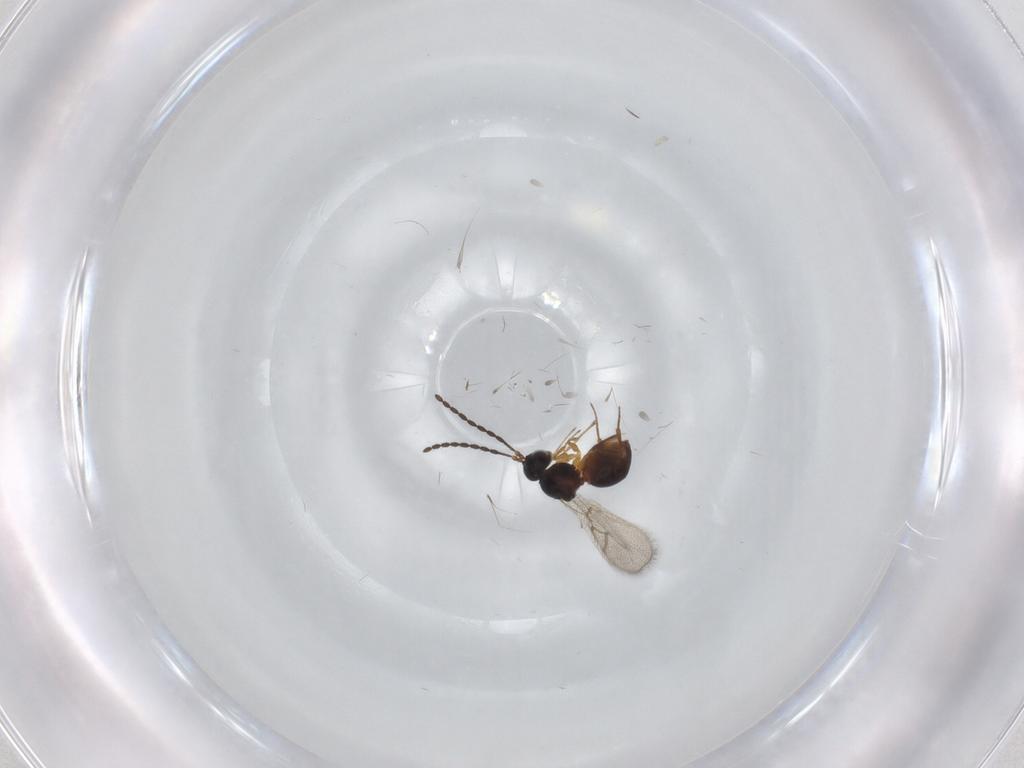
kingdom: Animalia
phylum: Arthropoda
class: Insecta
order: Hymenoptera
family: Figitidae
